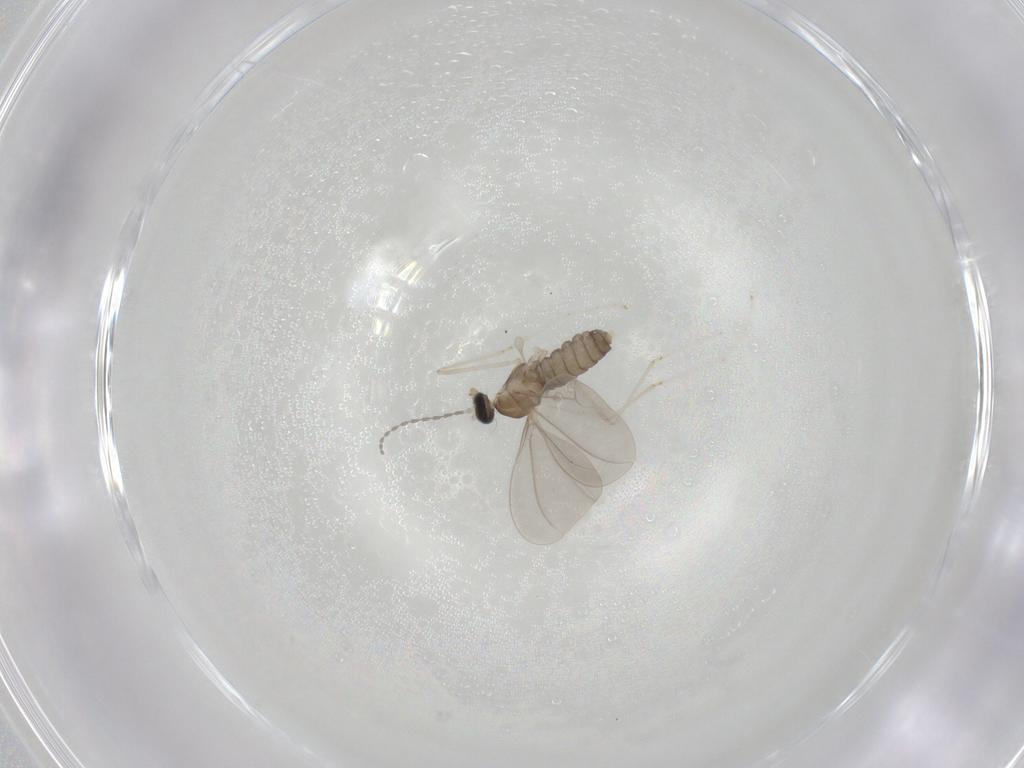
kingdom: Animalia
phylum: Arthropoda
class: Insecta
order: Diptera
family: Cecidomyiidae
